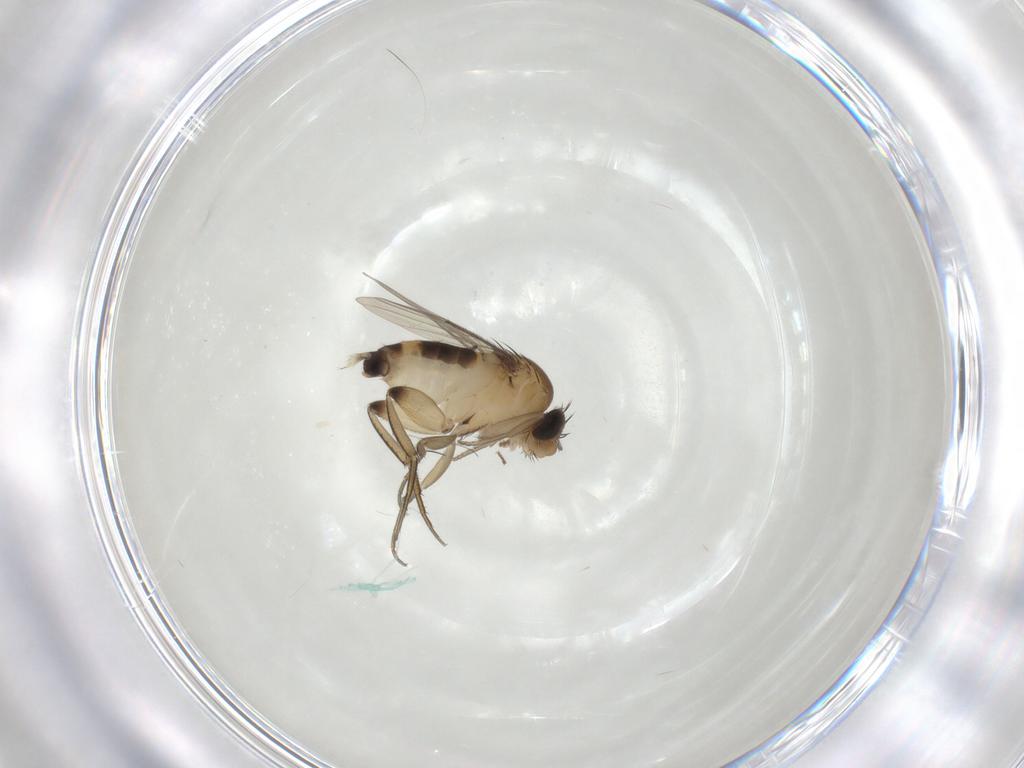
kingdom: Animalia
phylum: Arthropoda
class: Insecta
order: Diptera
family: Phoridae
